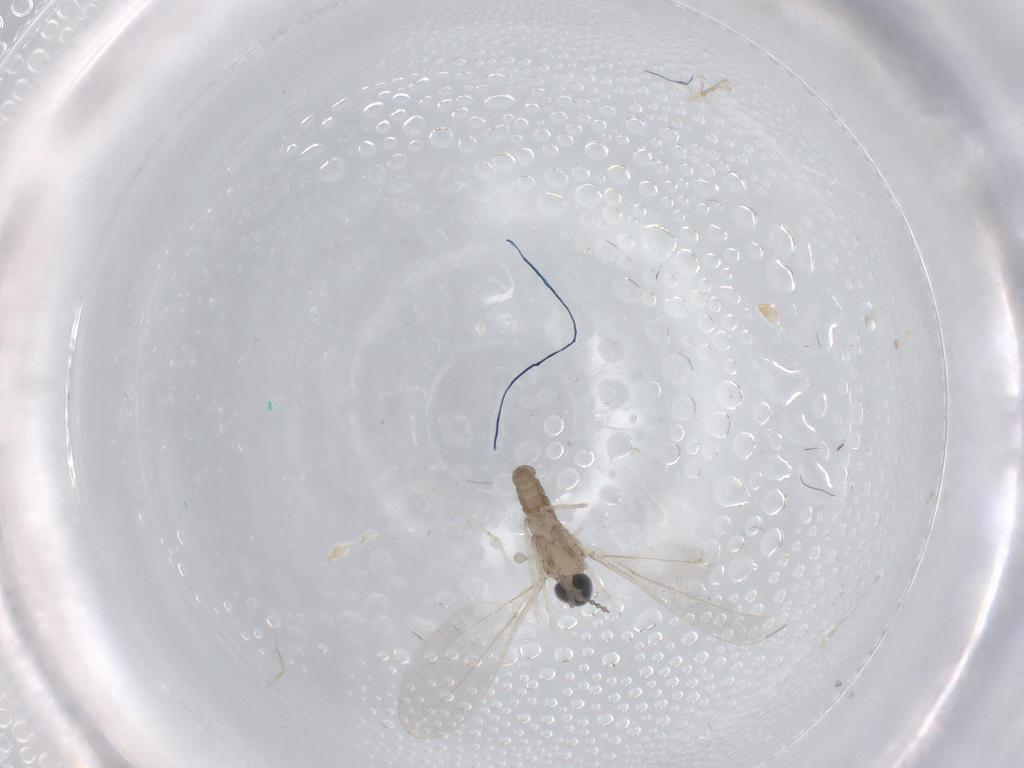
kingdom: Animalia
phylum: Arthropoda
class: Insecta
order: Diptera
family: Cecidomyiidae
